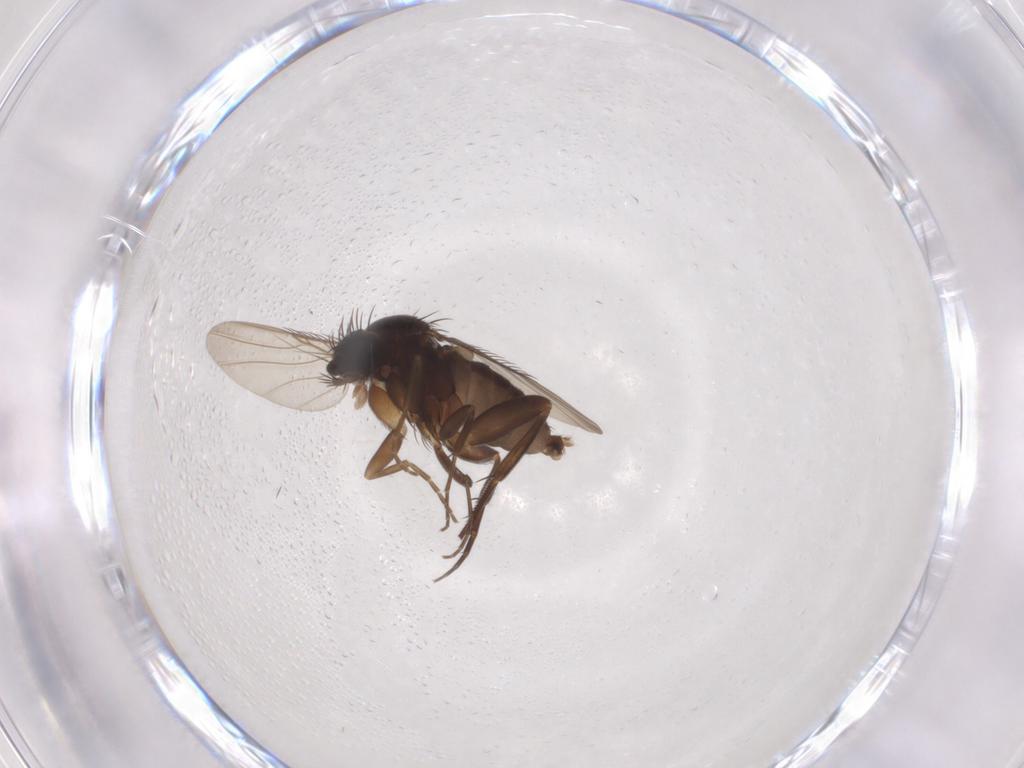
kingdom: Animalia
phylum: Arthropoda
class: Insecta
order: Diptera
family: Phoridae
